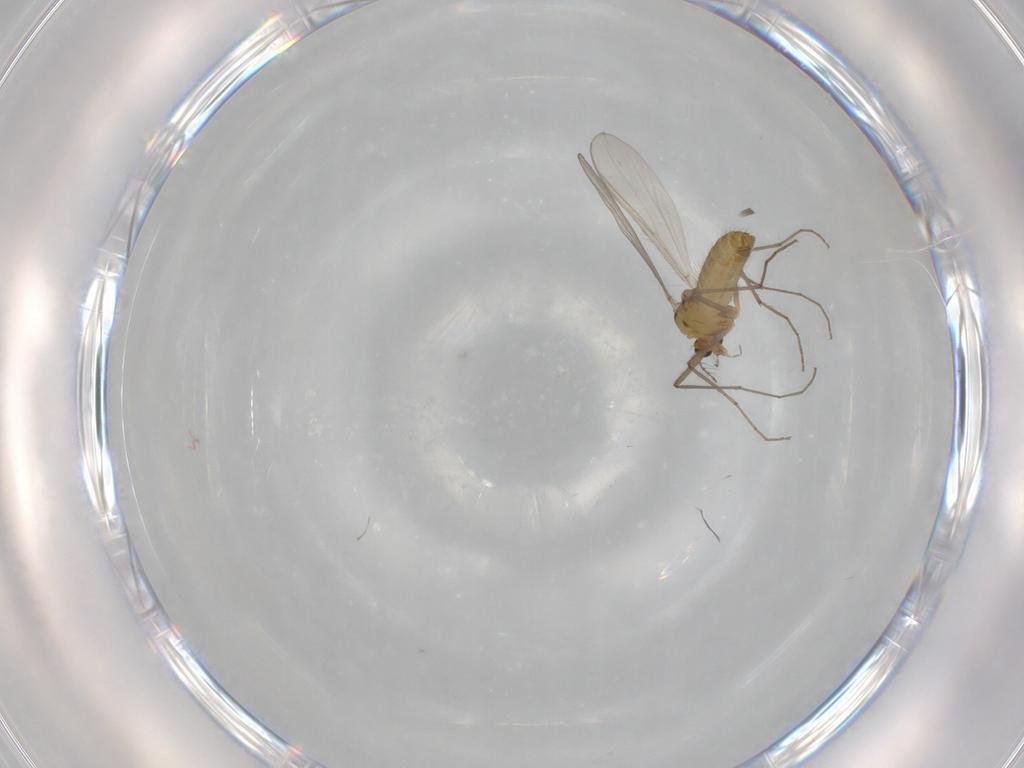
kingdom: Animalia
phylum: Arthropoda
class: Insecta
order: Diptera
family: Chironomidae
